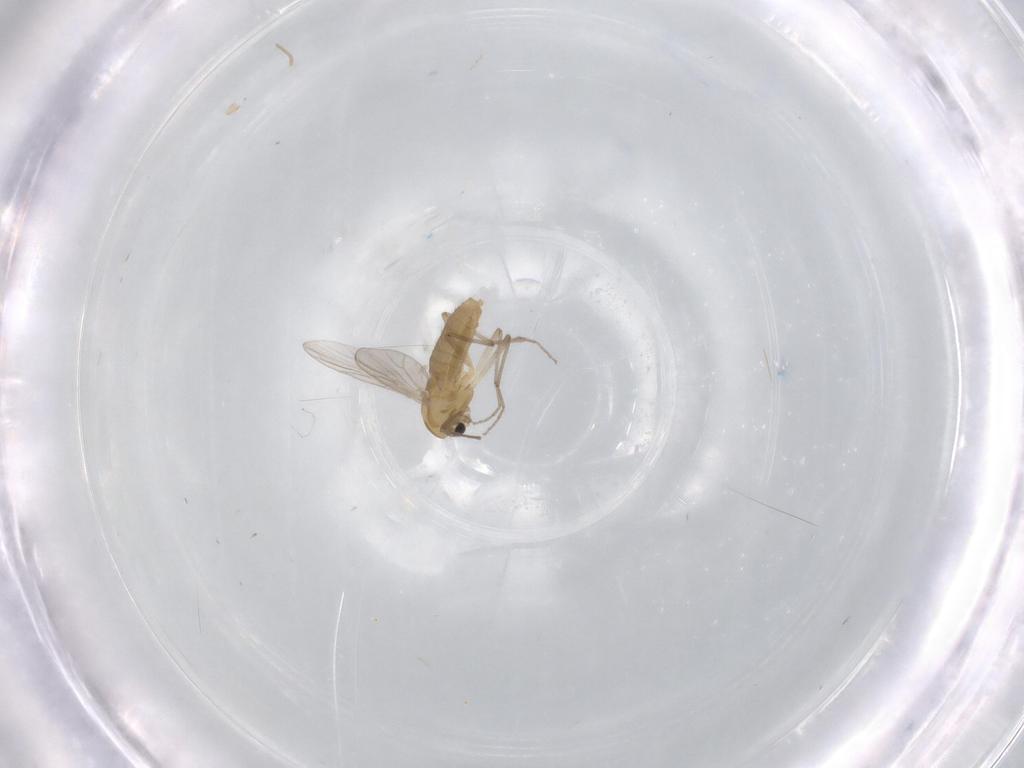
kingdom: Animalia
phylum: Arthropoda
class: Insecta
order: Diptera
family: Chironomidae
